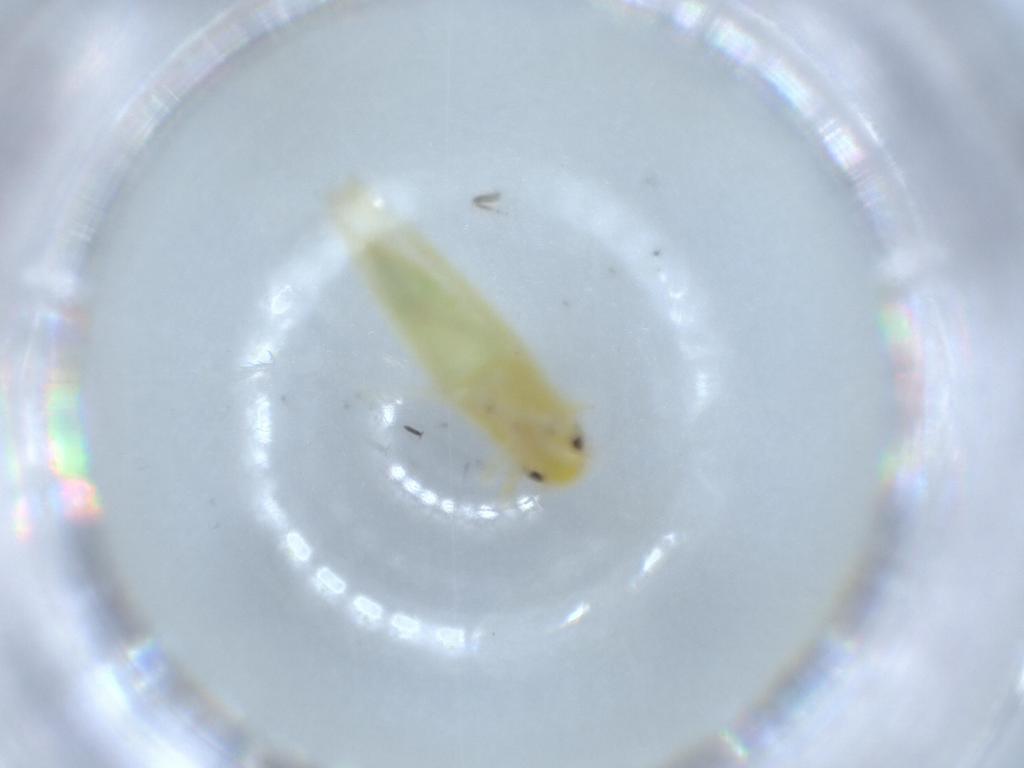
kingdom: Animalia
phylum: Arthropoda
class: Insecta
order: Hemiptera
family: Cicadellidae
